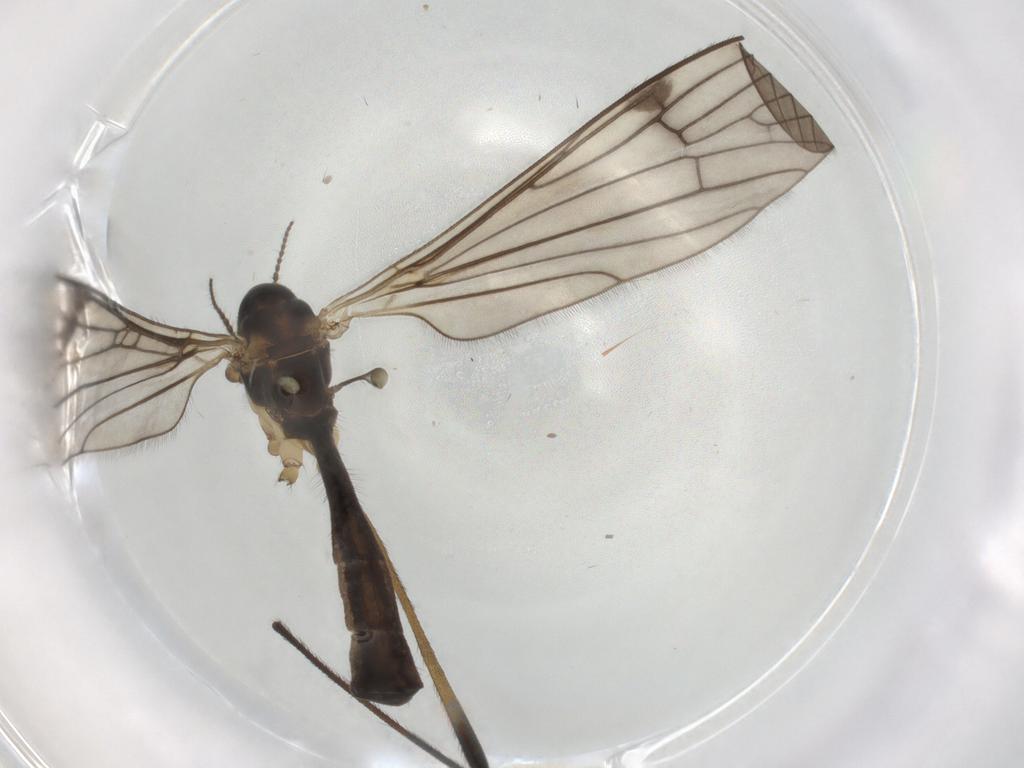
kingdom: Animalia
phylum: Arthropoda
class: Insecta
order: Diptera
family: Limoniidae
